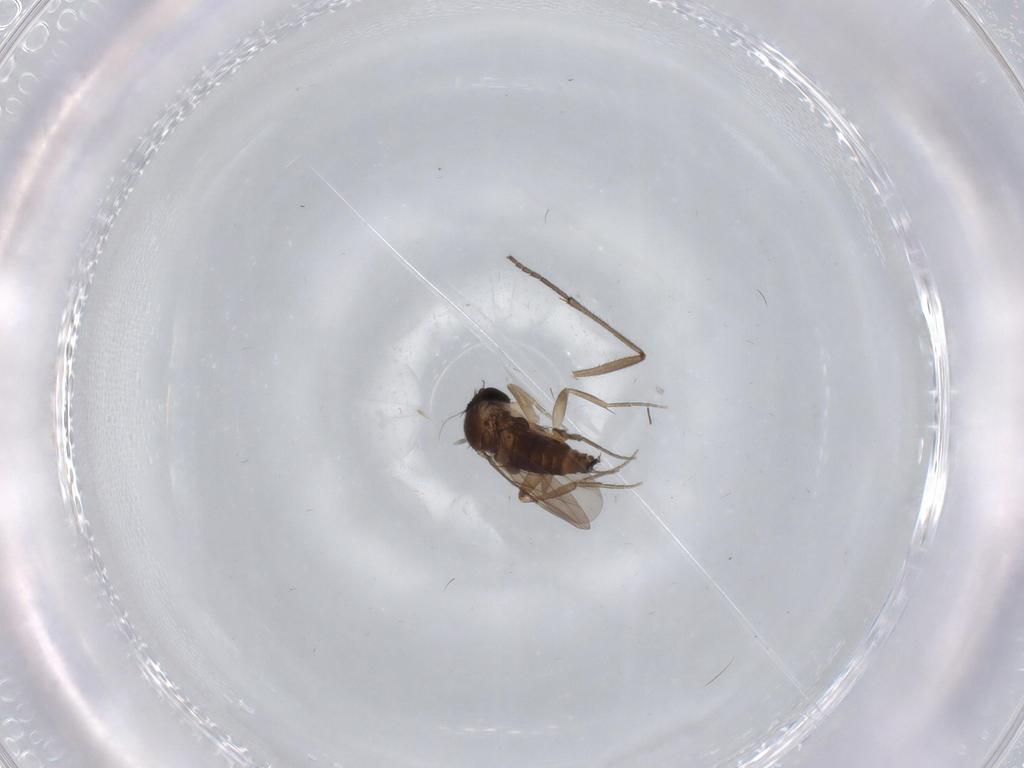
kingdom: Animalia
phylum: Arthropoda
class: Insecta
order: Diptera
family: Phoridae
